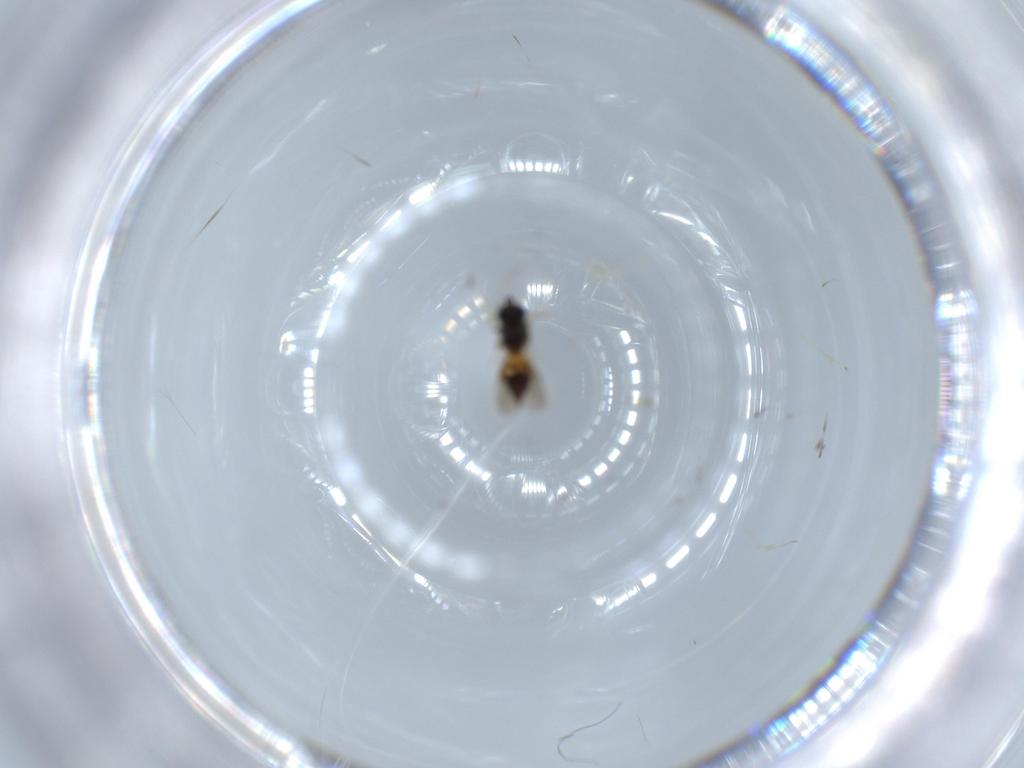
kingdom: Animalia
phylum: Arthropoda
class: Insecta
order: Hymenoptera
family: Diapriidae
